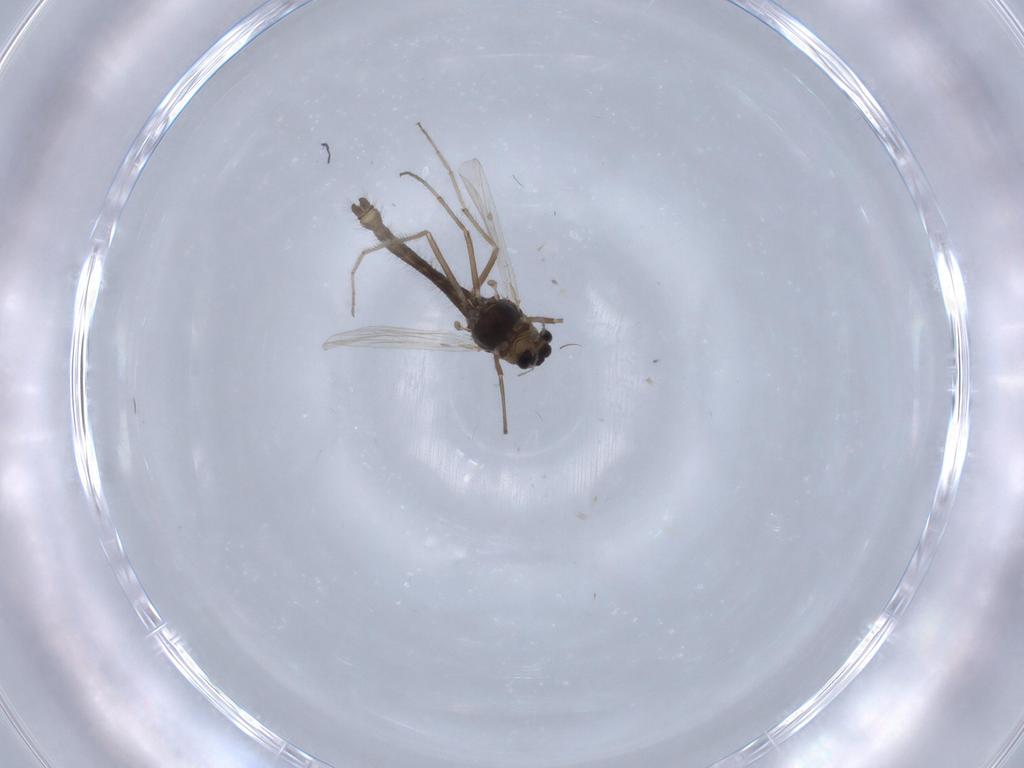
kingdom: Animalia
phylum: Arthropoda
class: Insecta
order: Diptera
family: Chironomidae
